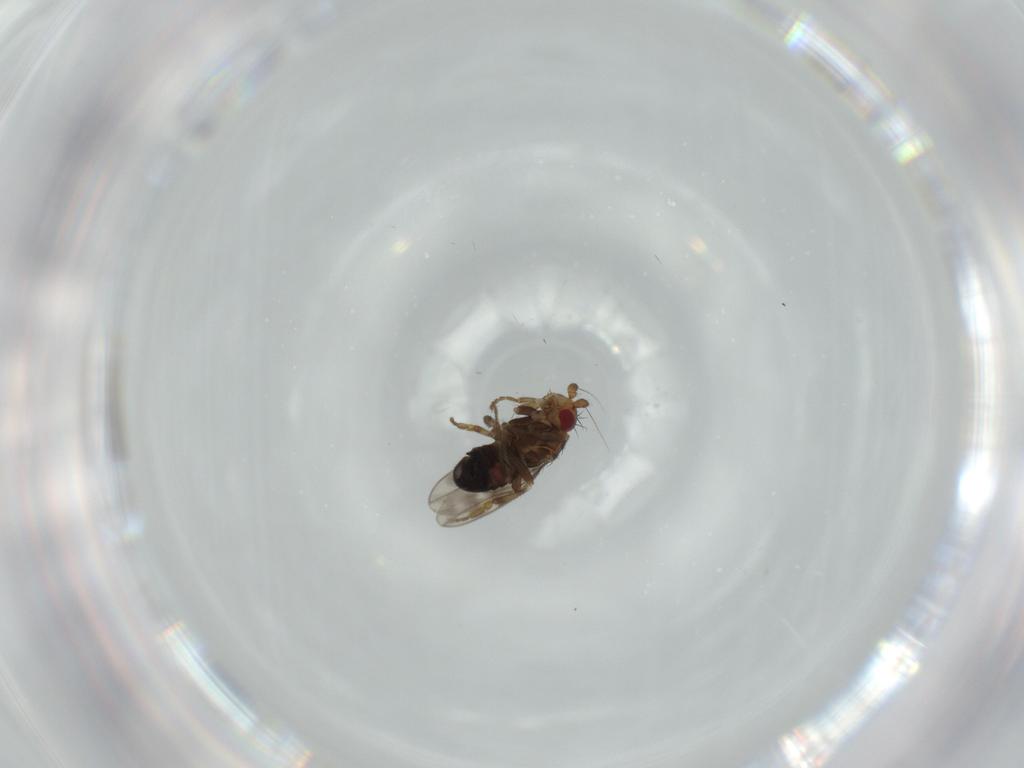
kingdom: Animalia
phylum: Arthropoda
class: Insecta
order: Diptera
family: Sphaeroceridae
